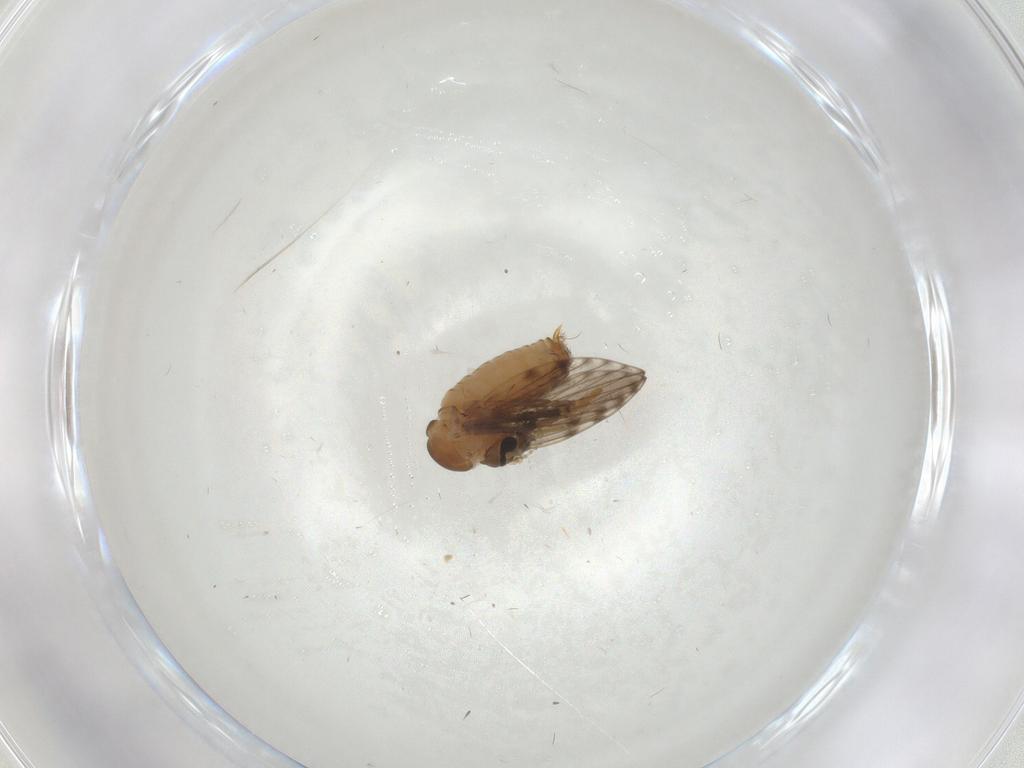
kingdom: Animalia
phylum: Arthropoda
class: Insecta
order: Diptera
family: Psychodidae
